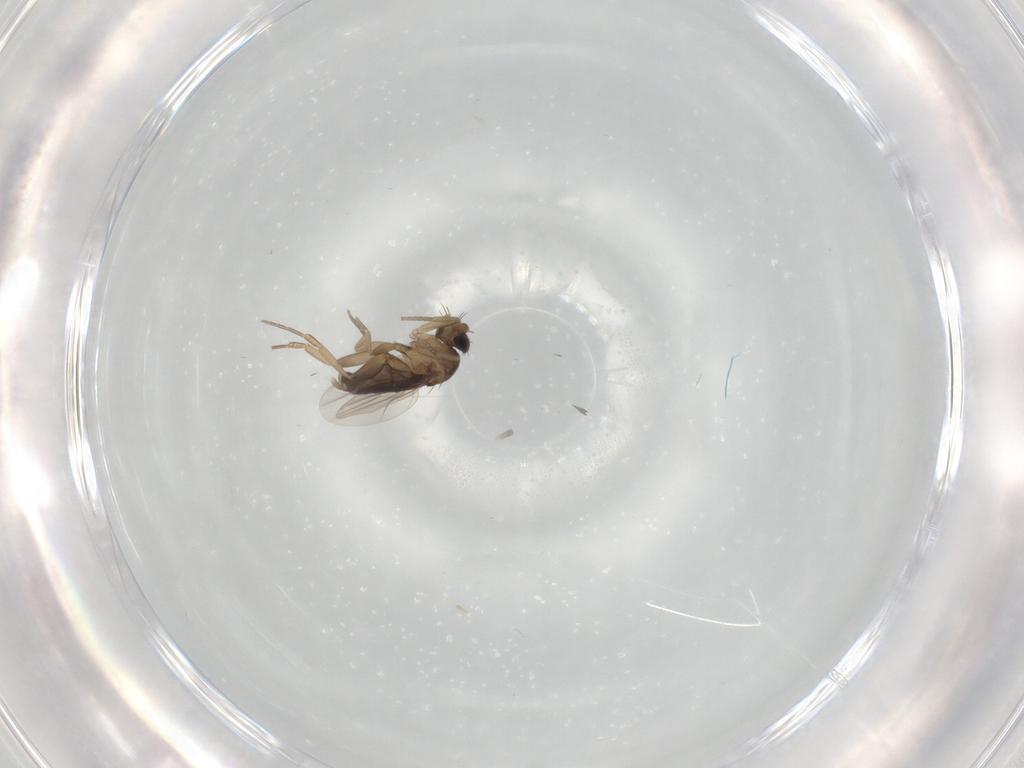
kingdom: Animalia
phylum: Arthropoda
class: Insecta
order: Diptera
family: Phoridae
